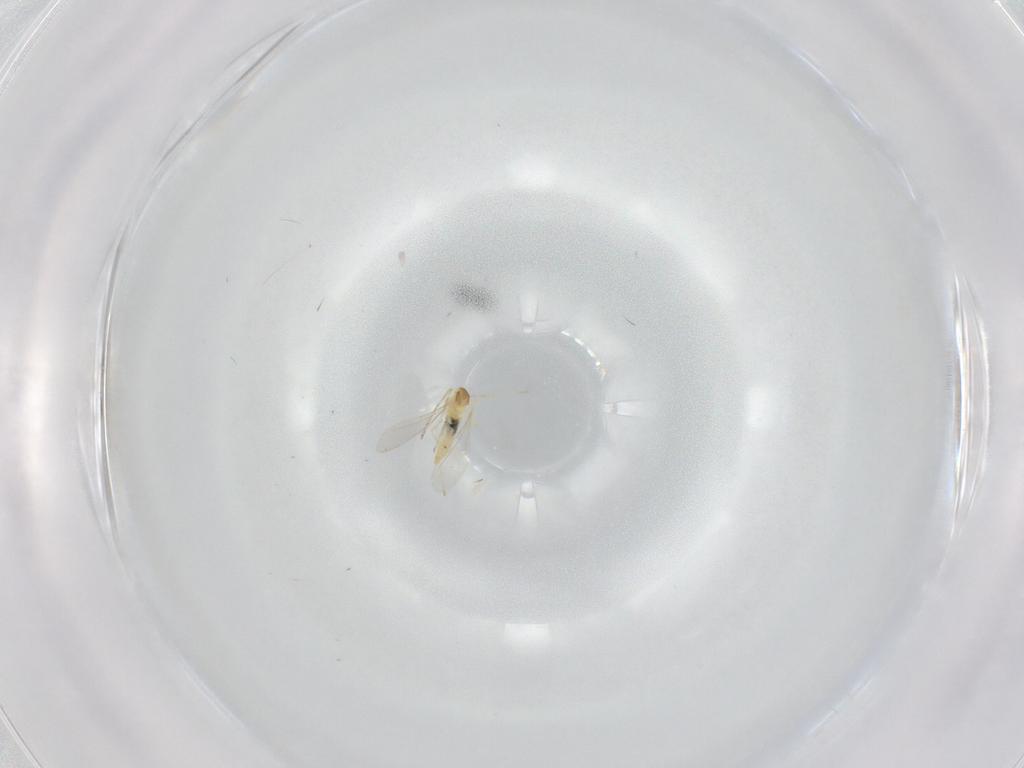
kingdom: Animalia
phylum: Arthropoda
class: Insecta
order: Diptera
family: Cecidomyiidae
